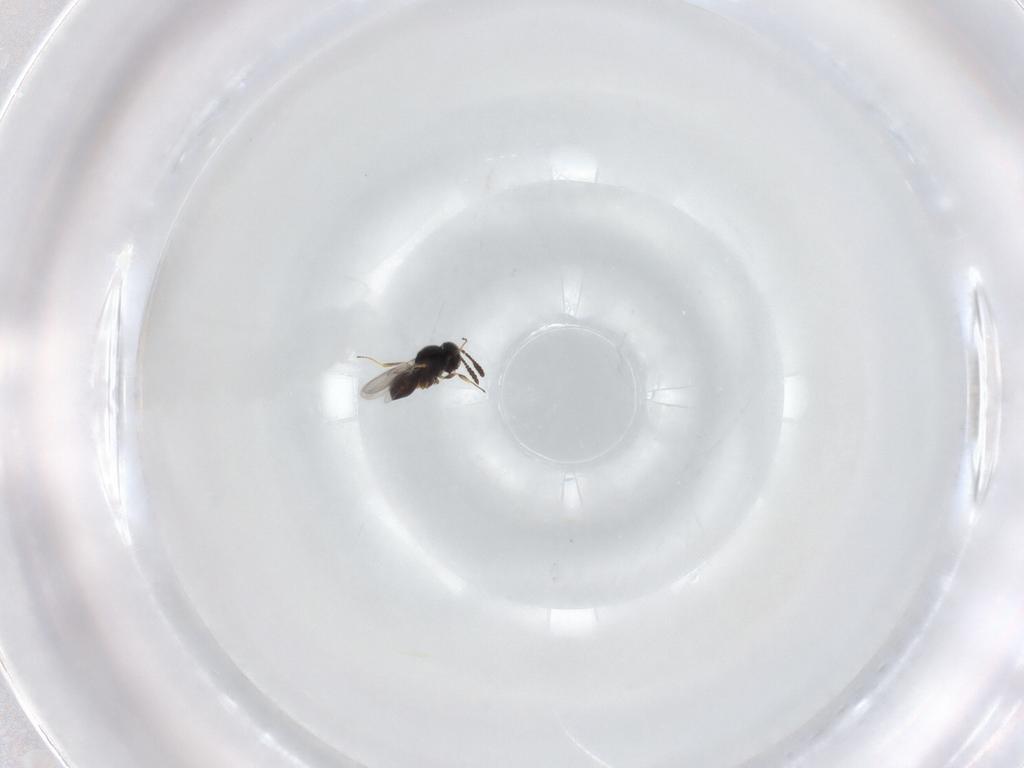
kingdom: Animalia
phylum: Arthropoda
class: Insecta
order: Hymenoptera
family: Scelionidae
